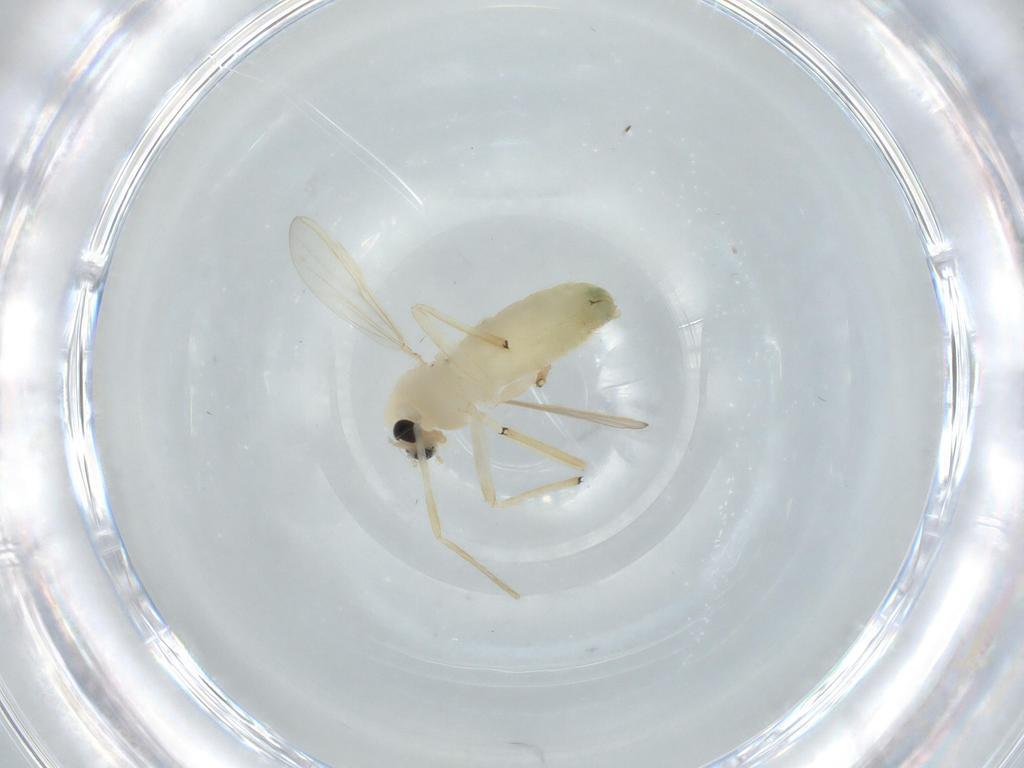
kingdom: Animalia
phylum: Arthropoda
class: Insecta
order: Diptera
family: Chironomidae
